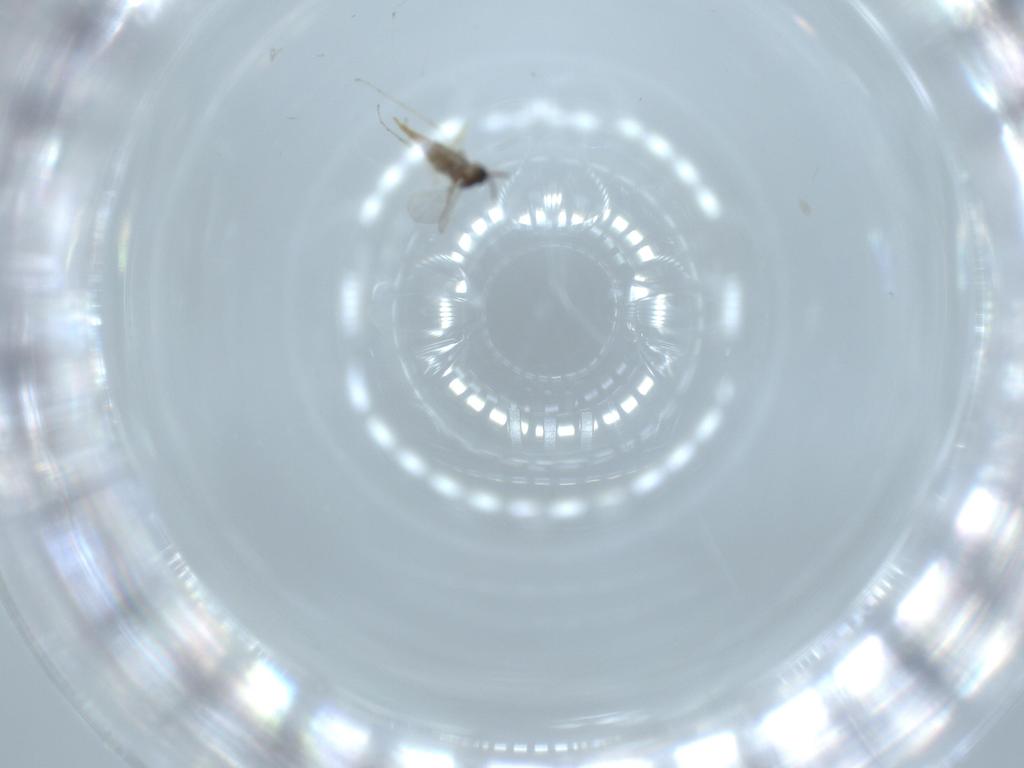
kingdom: Animalia
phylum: Arthropoda
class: Insecta
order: Diptera
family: Cecidomyiidae
